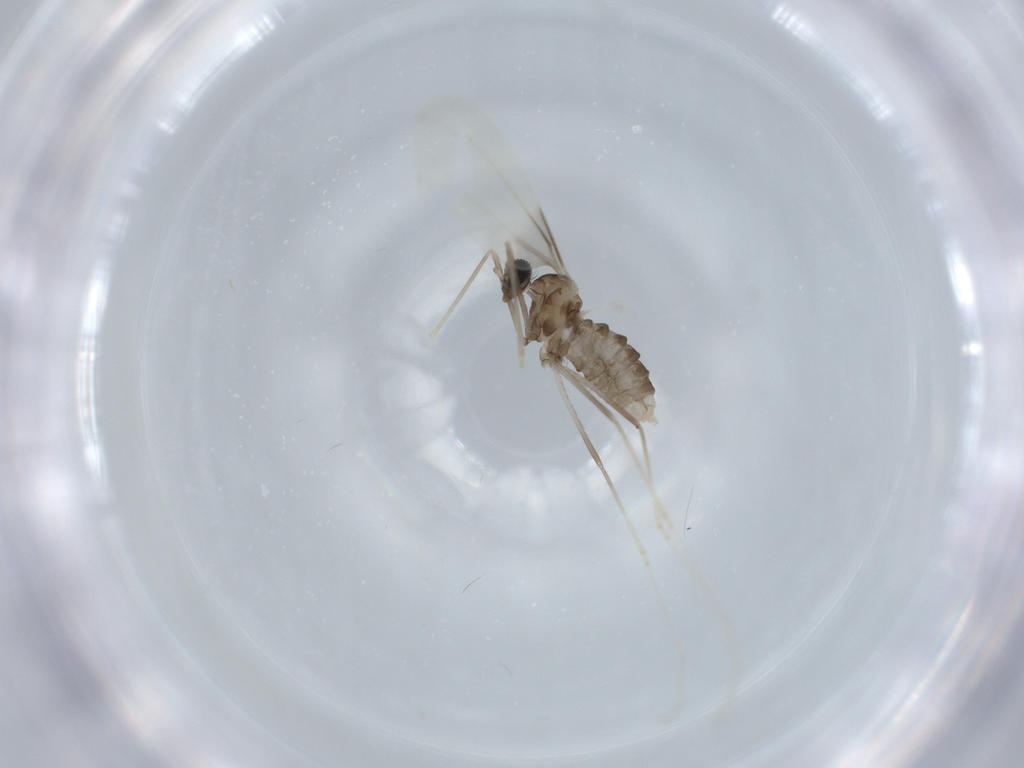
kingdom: Animalia
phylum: Arthropoda
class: Insecta
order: Diptera
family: Cecidomyiidae
